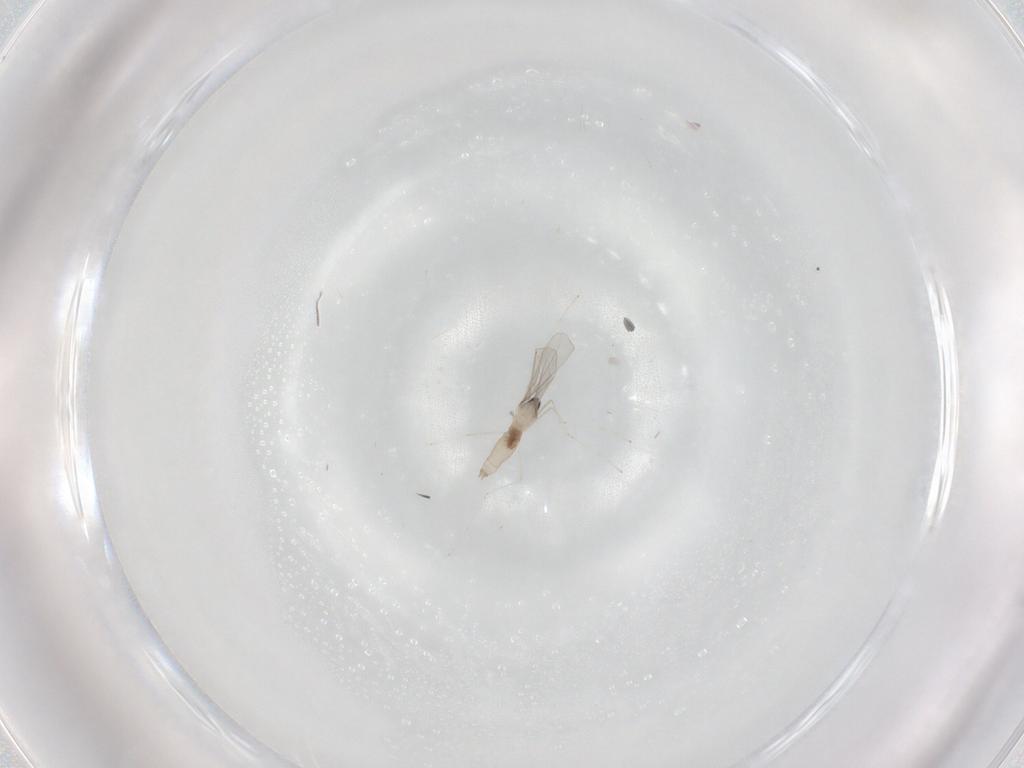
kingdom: Animalia
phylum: Arthropoda
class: Insecta
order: Diptera
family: Cecidomyiidae
